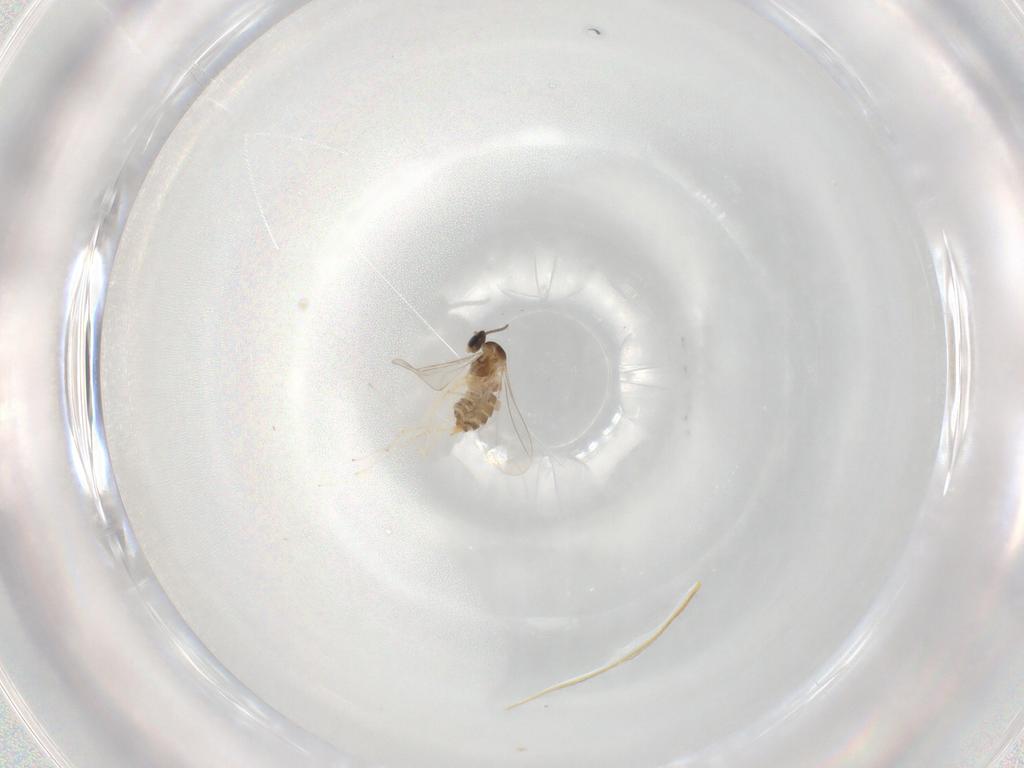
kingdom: Animalia
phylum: Arthropoda
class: Insecta
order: Diptera
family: Cecidomyiidae
